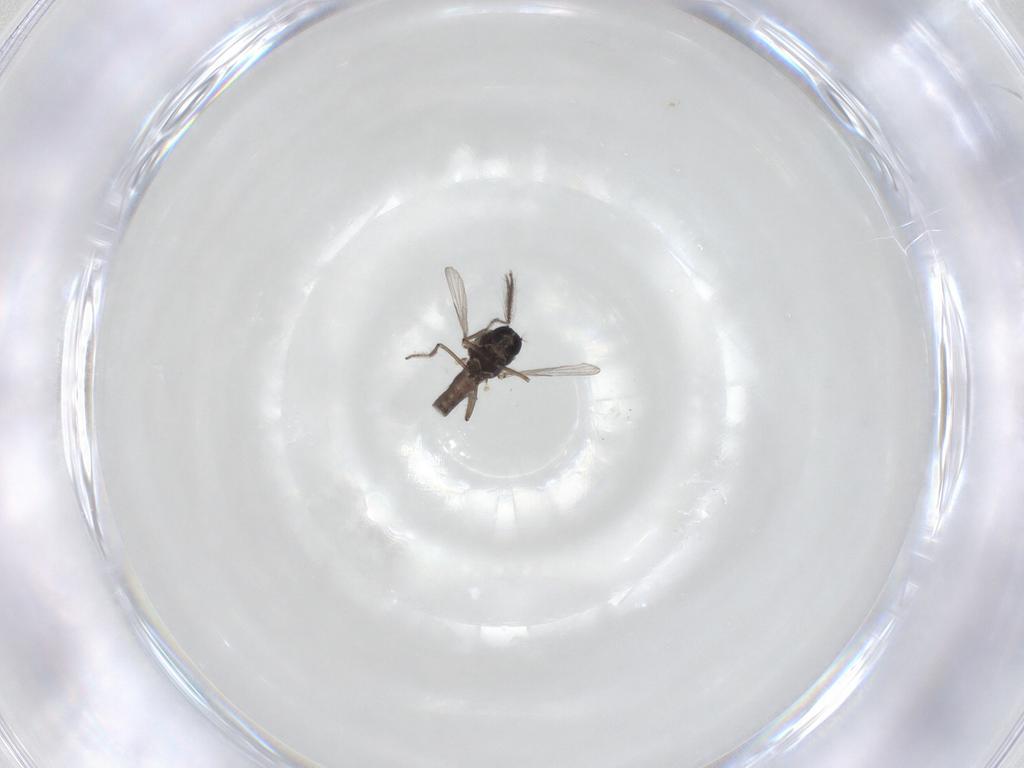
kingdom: Animalia
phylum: Arthropoda
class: Insecta
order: Diptera
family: Ceratopogonidae
